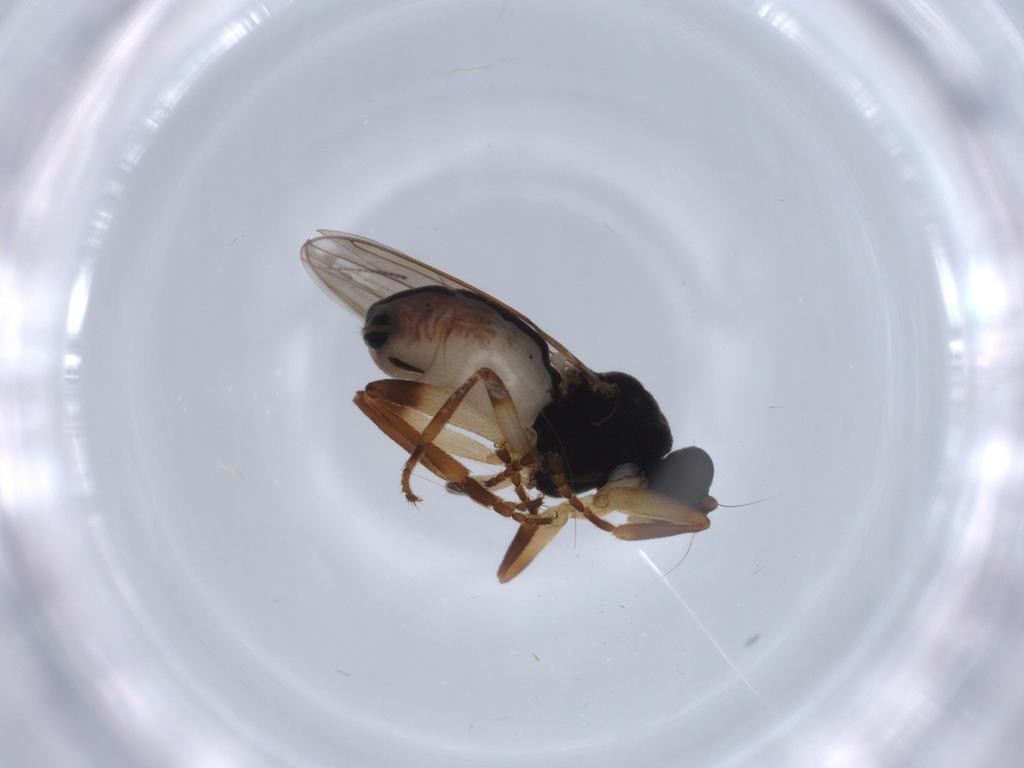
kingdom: Animalia
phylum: Arthropoda
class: Insecta
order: Diptera
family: Sphaeroceridae
